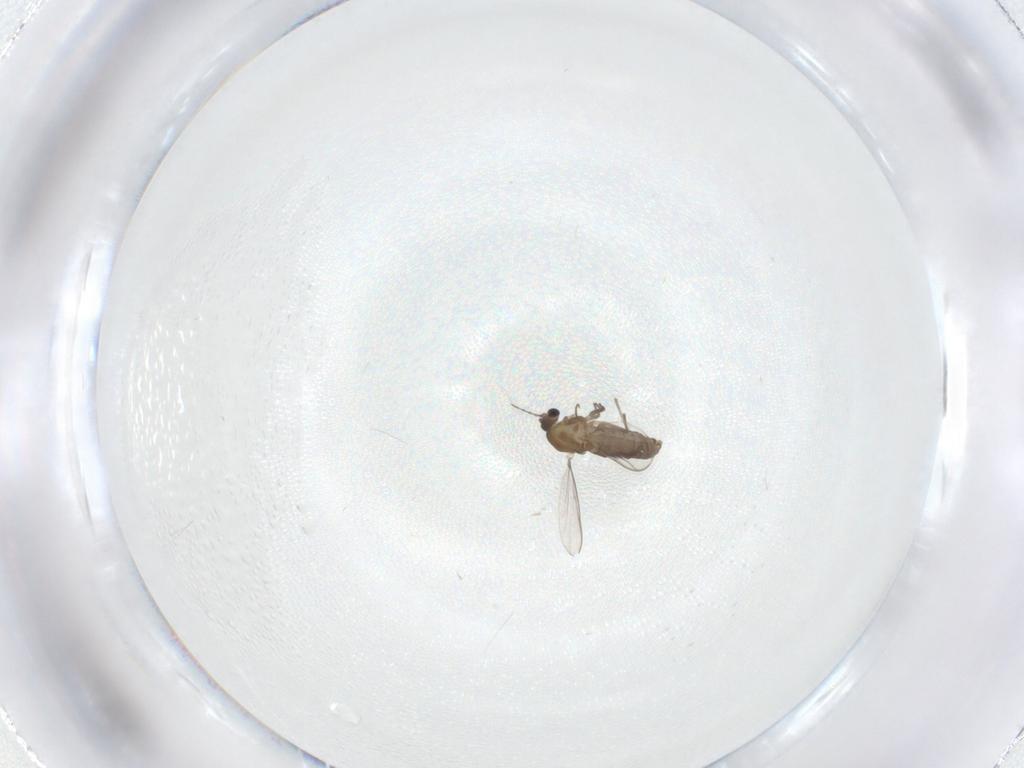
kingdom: Animalia
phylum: Arthropoda
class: Insecta
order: Diptera
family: Chironomidae
